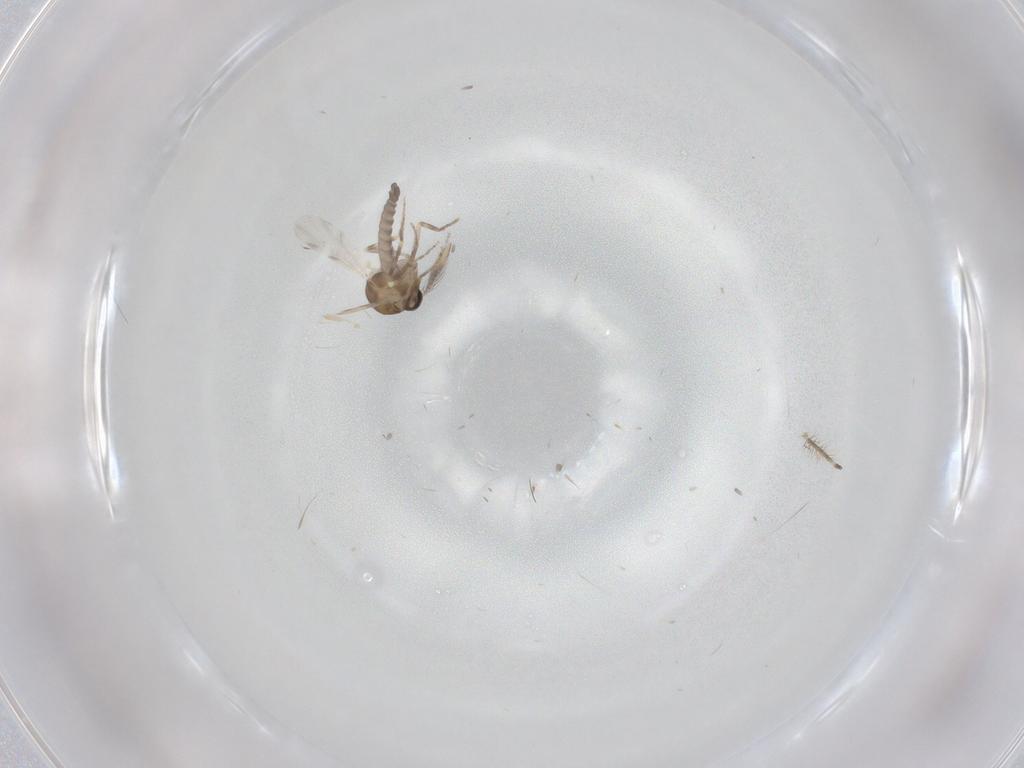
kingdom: Animalia
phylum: Arthropoda
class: Insecta
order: Diptera
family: Ceratopogonidae
